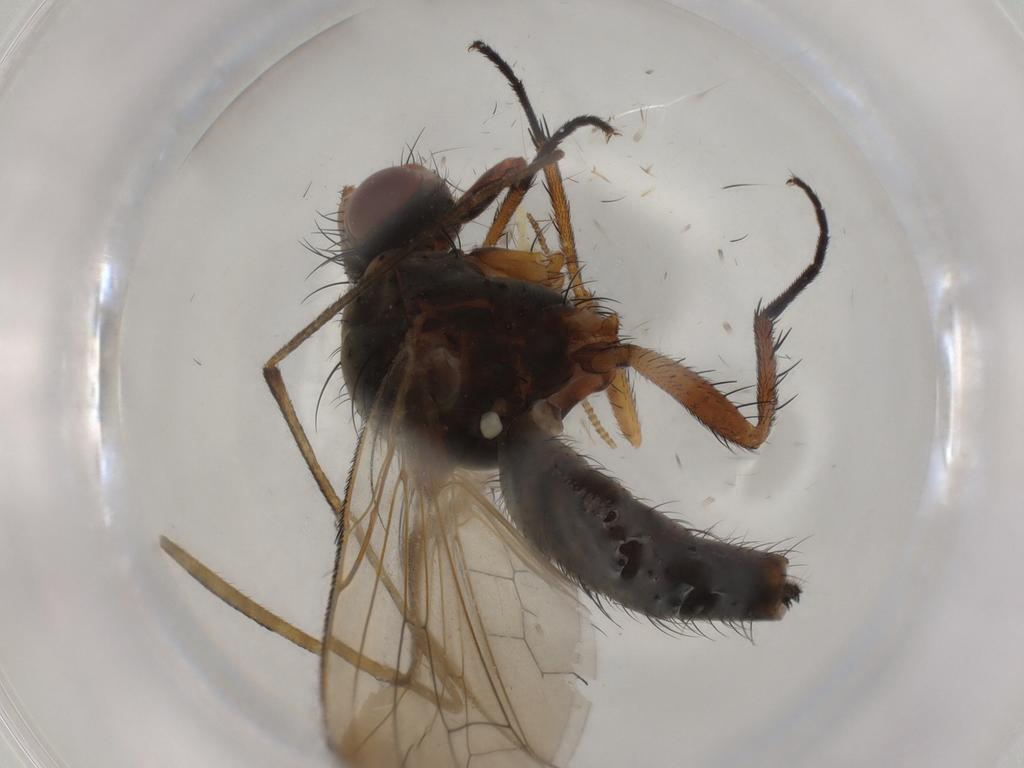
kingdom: Animalia
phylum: Arthropoda
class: Insecta
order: Diptera
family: Anthomyiidae
